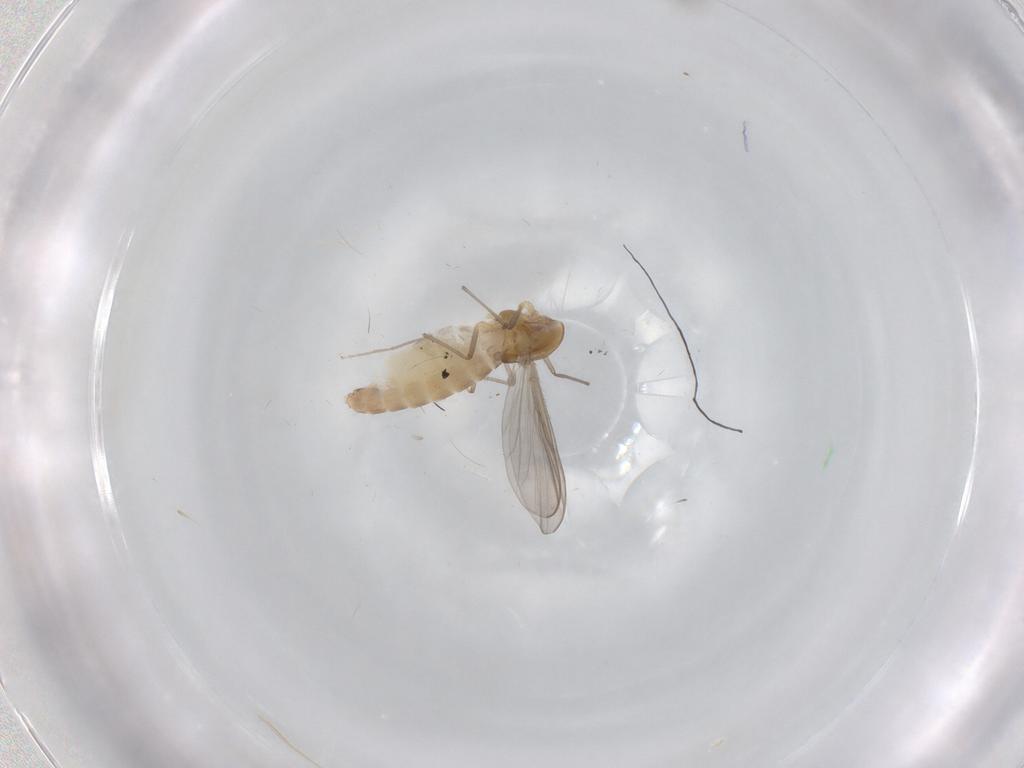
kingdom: Animalia
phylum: Arthropoda
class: Insecta
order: Diptera
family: Chironomidae
